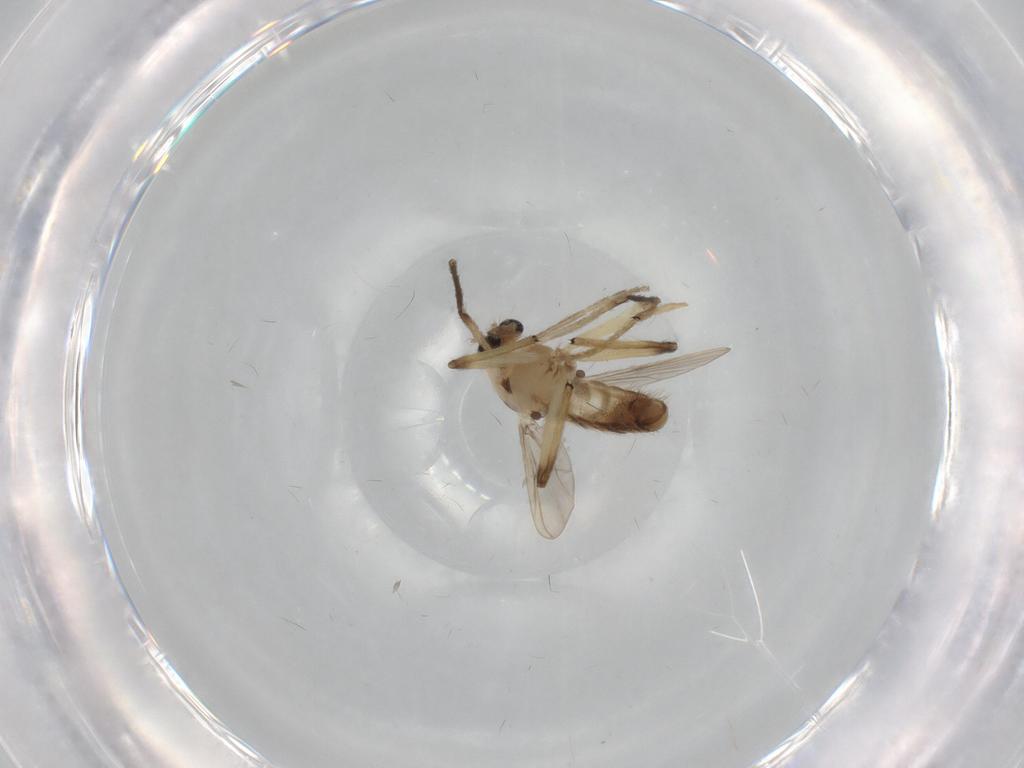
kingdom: Animalia
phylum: Arthropoda
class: Insecta
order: Diptera
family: Chironomidae
